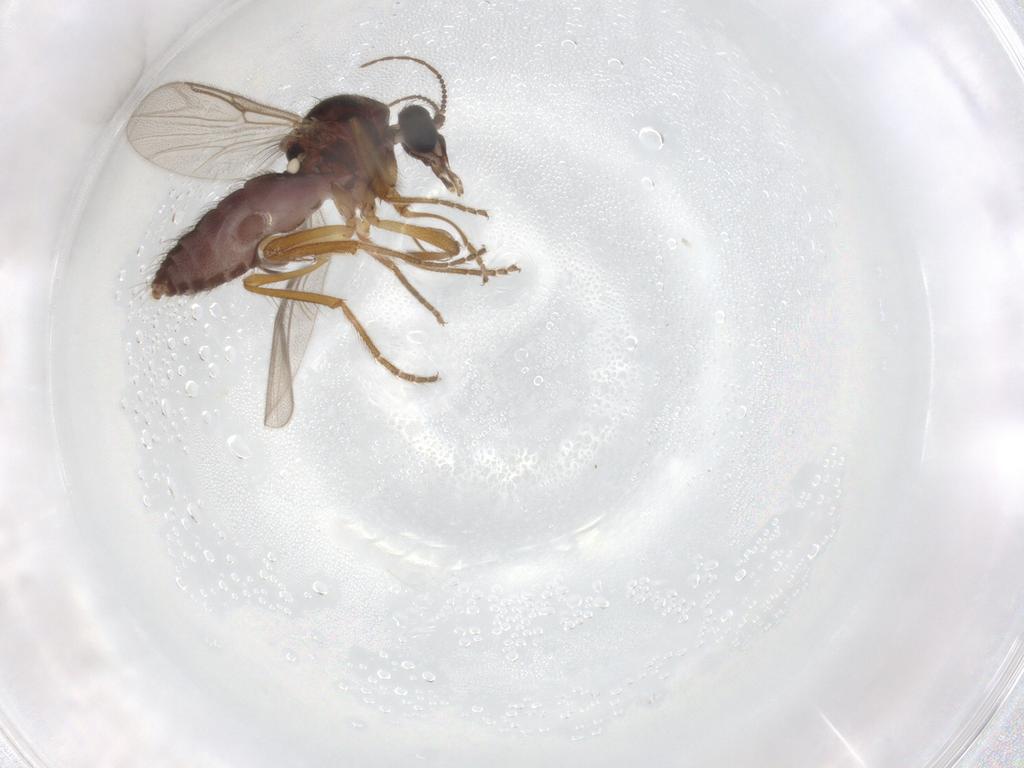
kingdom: Animalia
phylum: Arthropoda
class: Insecta
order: Diptera
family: Ceratopogonidae
